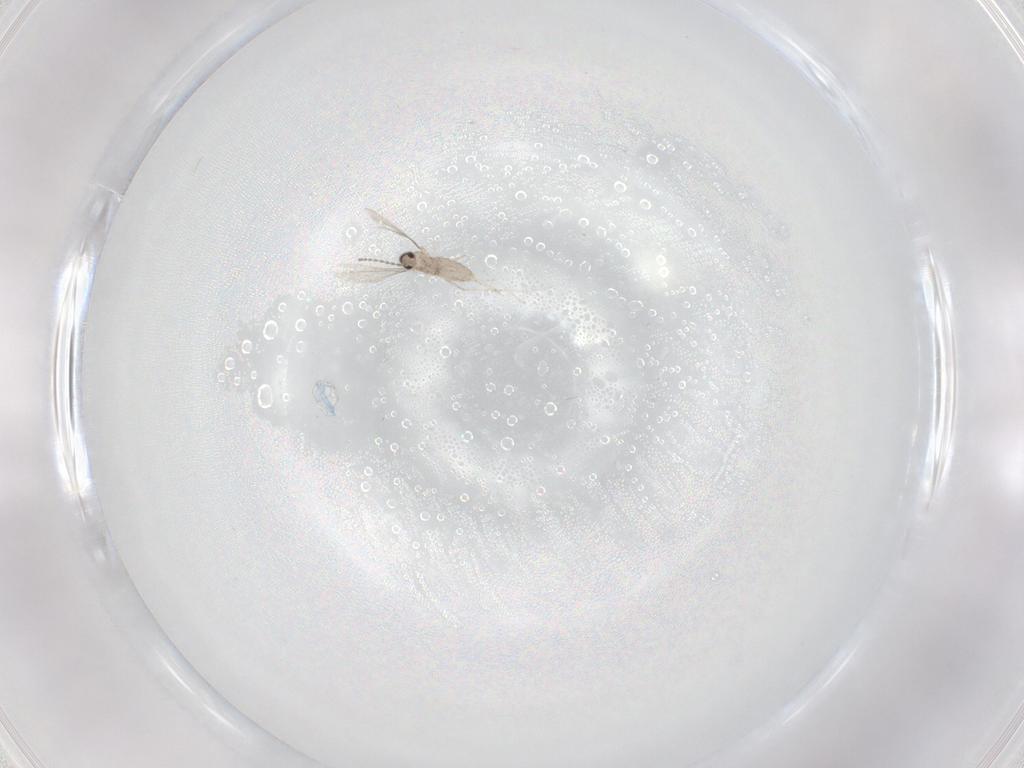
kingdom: Animalia
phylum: Arthropoda
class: Insecta
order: Diptera
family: Cecidomyiidae
